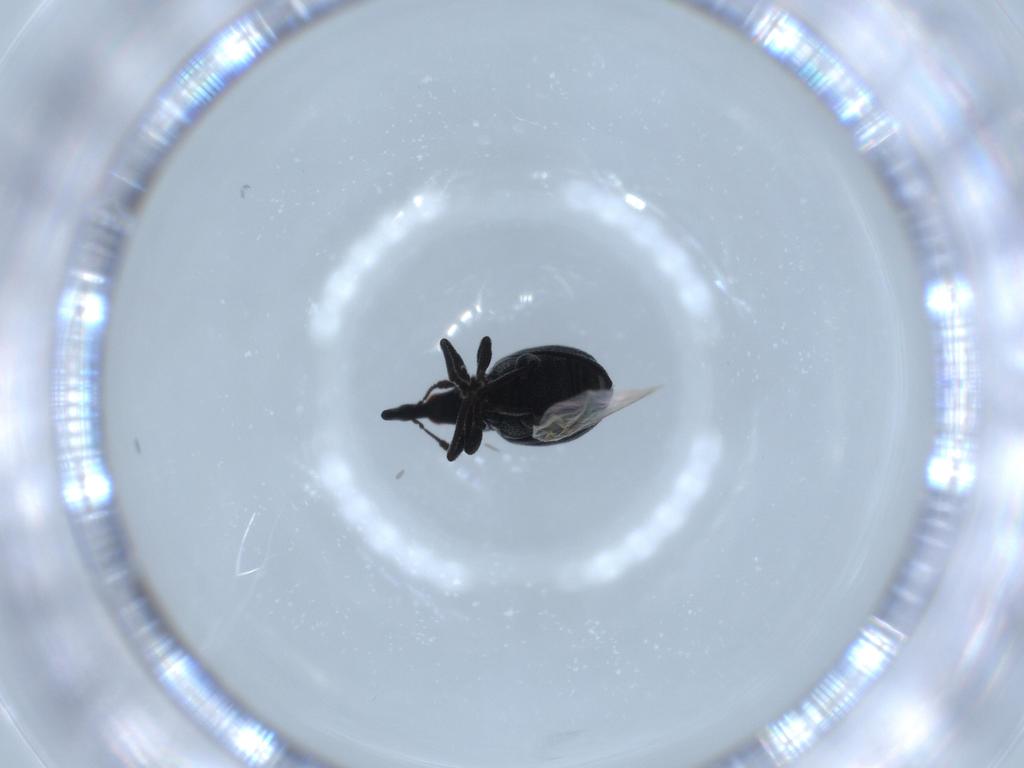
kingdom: Animalia
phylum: Arthropoda
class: Insecta
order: Coleoptera
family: Brentidae
